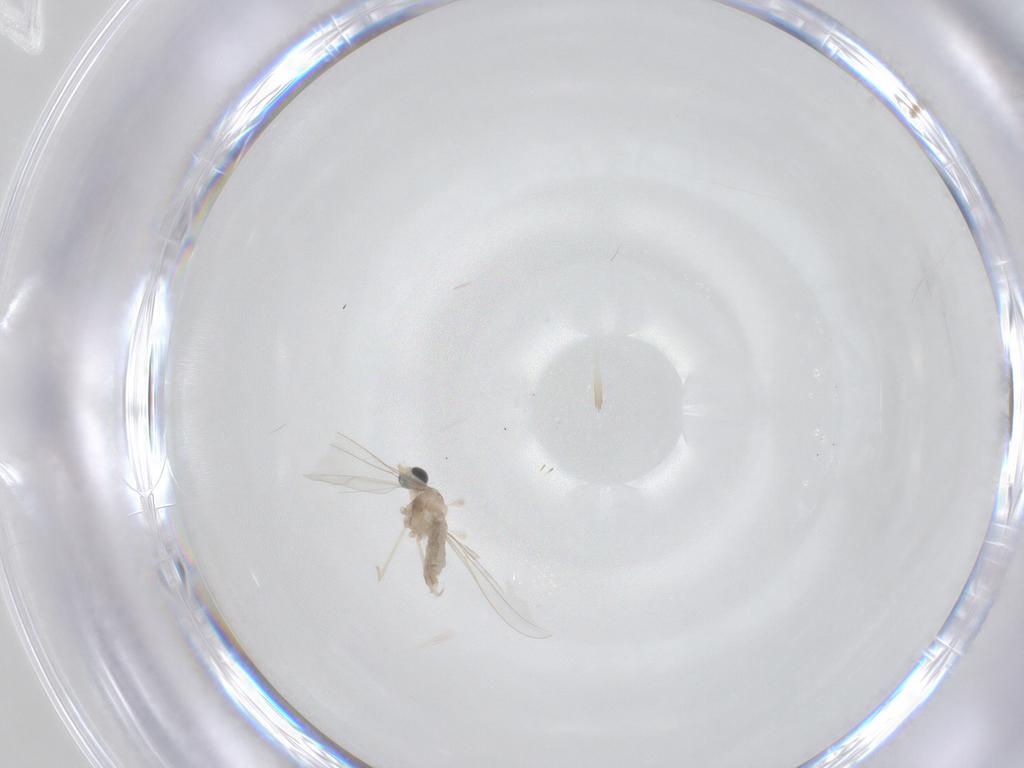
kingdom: Animalia
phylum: Arthropoda
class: Insecta
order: Diptera
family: Cecidomyiidae
